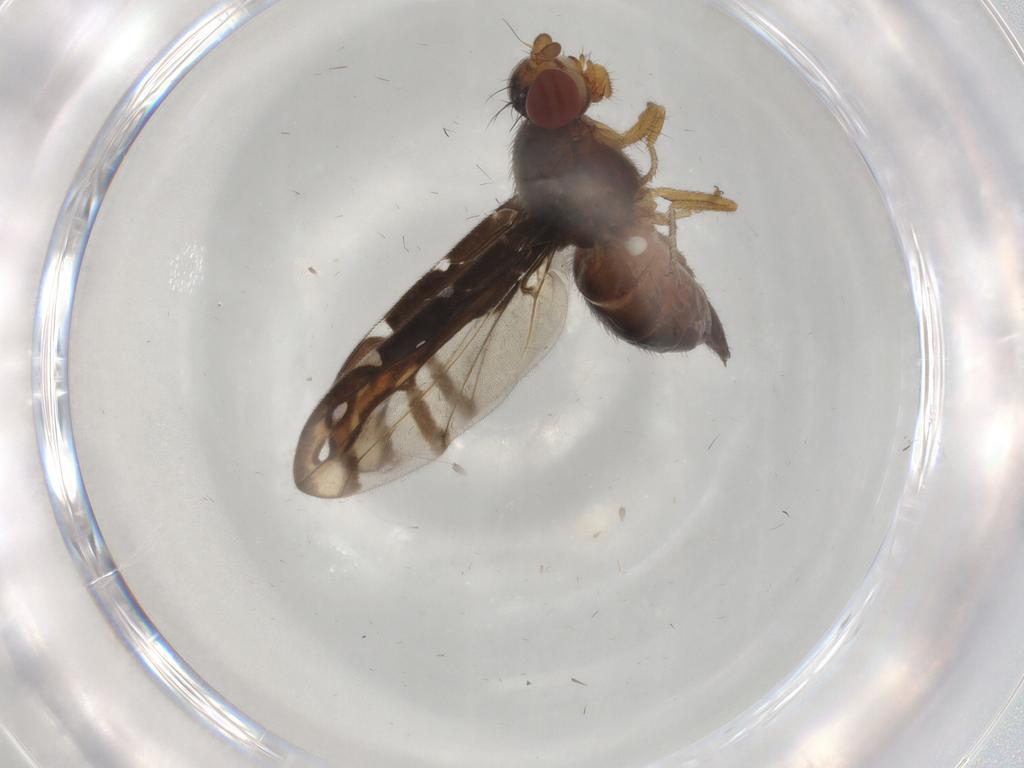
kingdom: Animalia
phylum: Arthropoda
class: Insecta
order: Diptera
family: Ulidiidae
